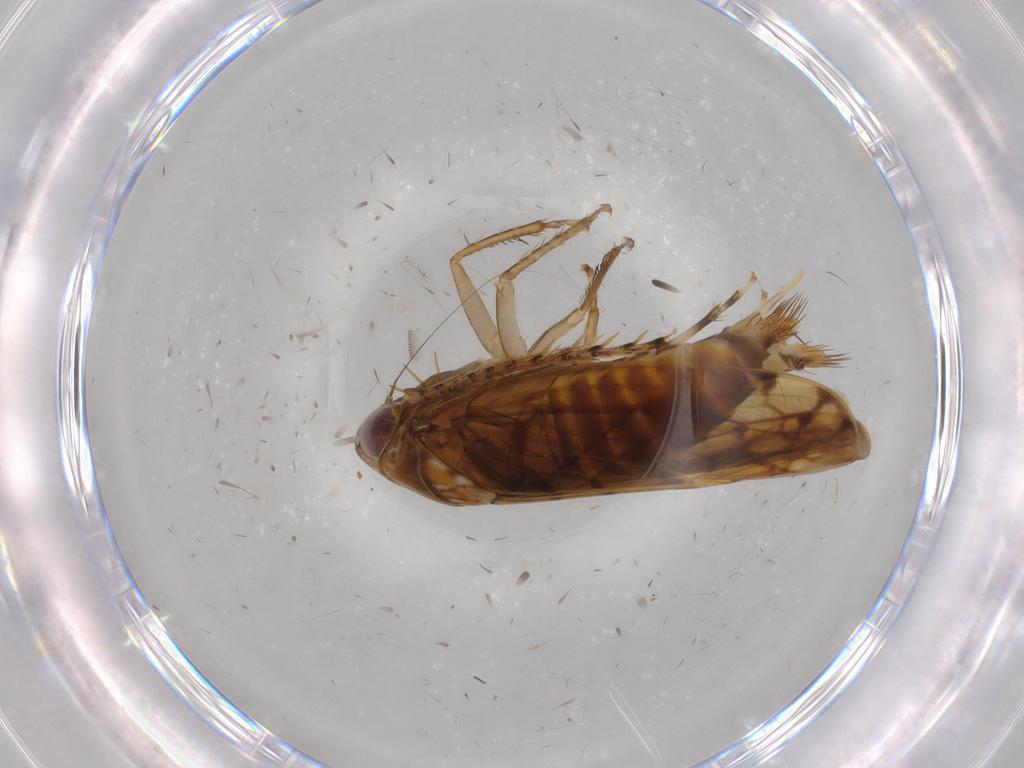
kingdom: Animalia
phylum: Arthropoda
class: Insecta
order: Hemiptera
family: Cicadellidae
